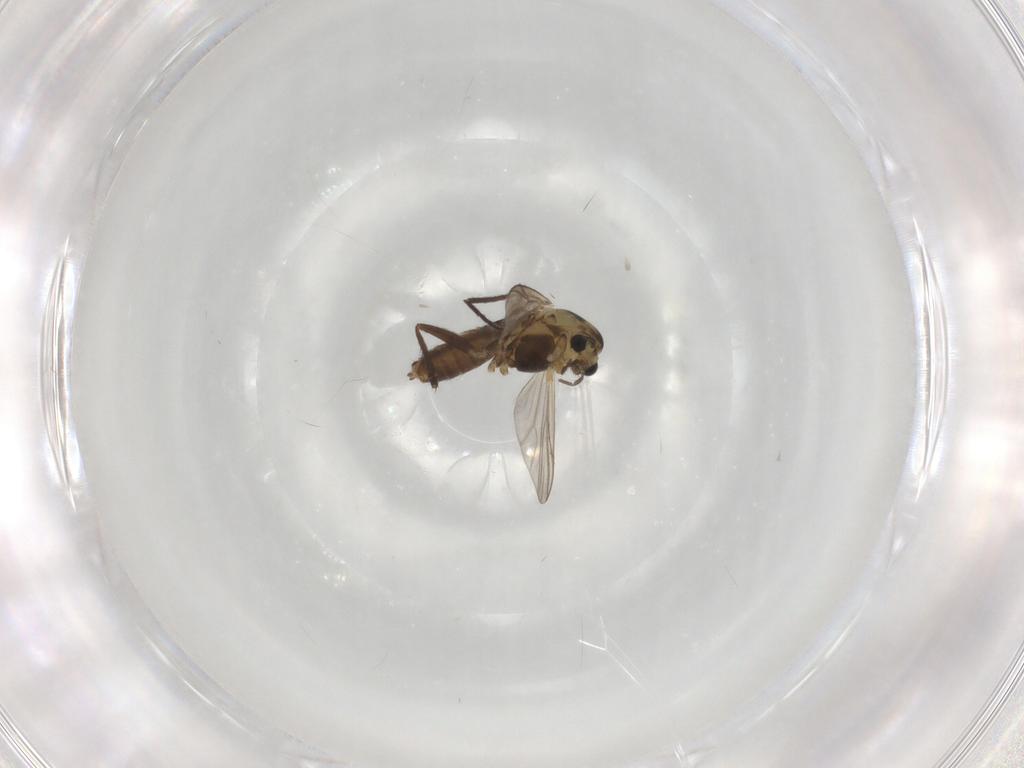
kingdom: Animalia
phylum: Arthropoda
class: Insecta
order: Diptera
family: Chironomidae
